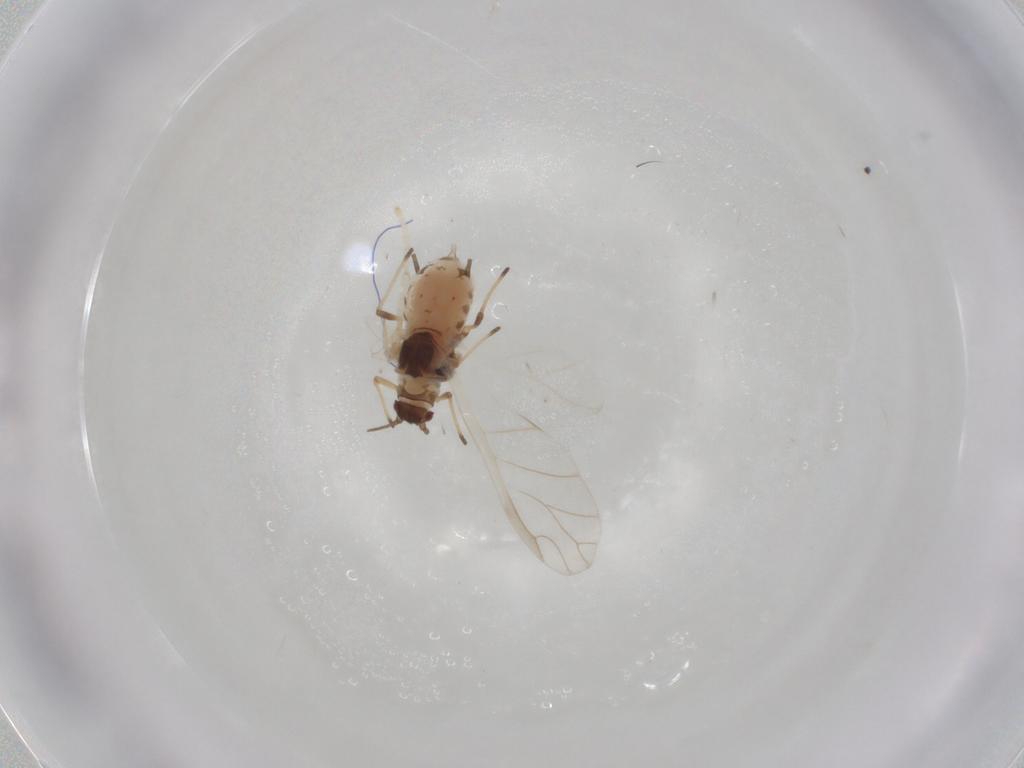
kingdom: Animalia
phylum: Arthropoda
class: Insecta
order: Hemiptera
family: Aphididae
